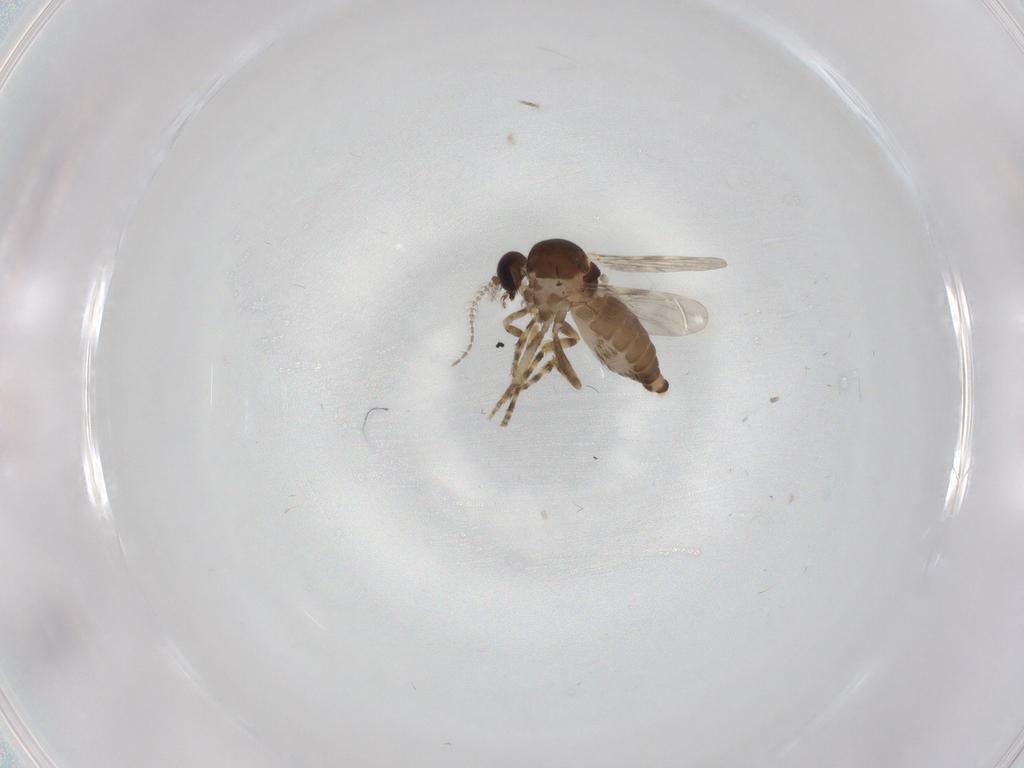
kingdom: Animalia
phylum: Arthropoda
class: Insecta
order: Diptera
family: Ceratopogonidae
